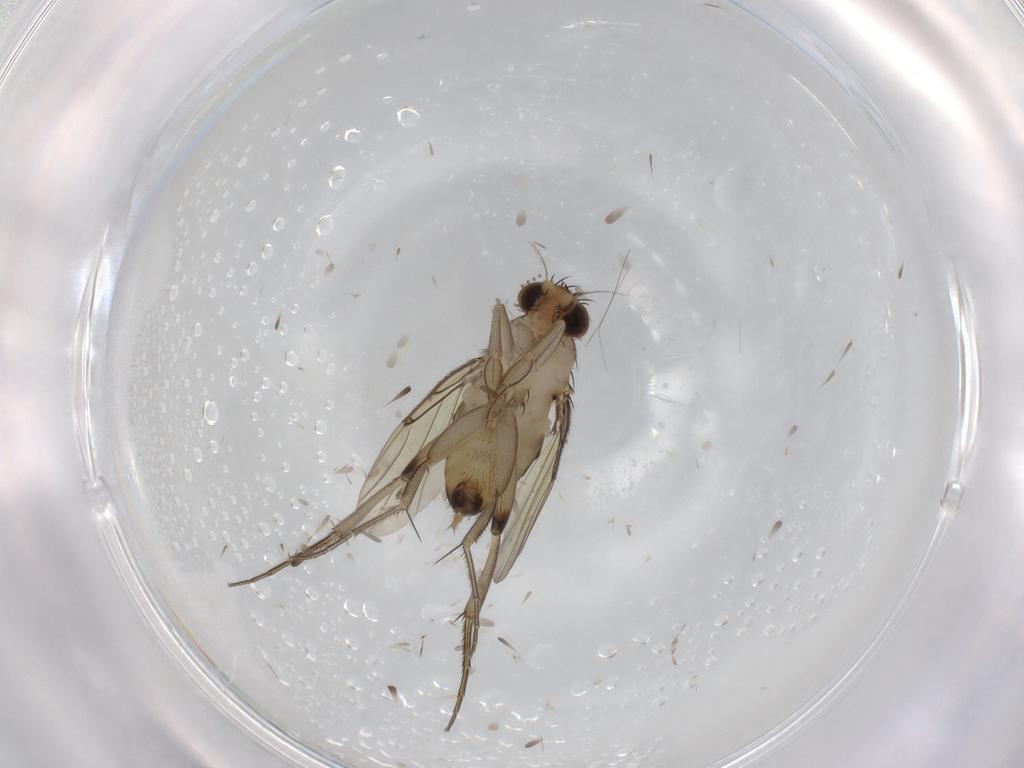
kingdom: Animalia
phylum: Arthropoda
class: Insecta
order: Diptera
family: Phoridae
